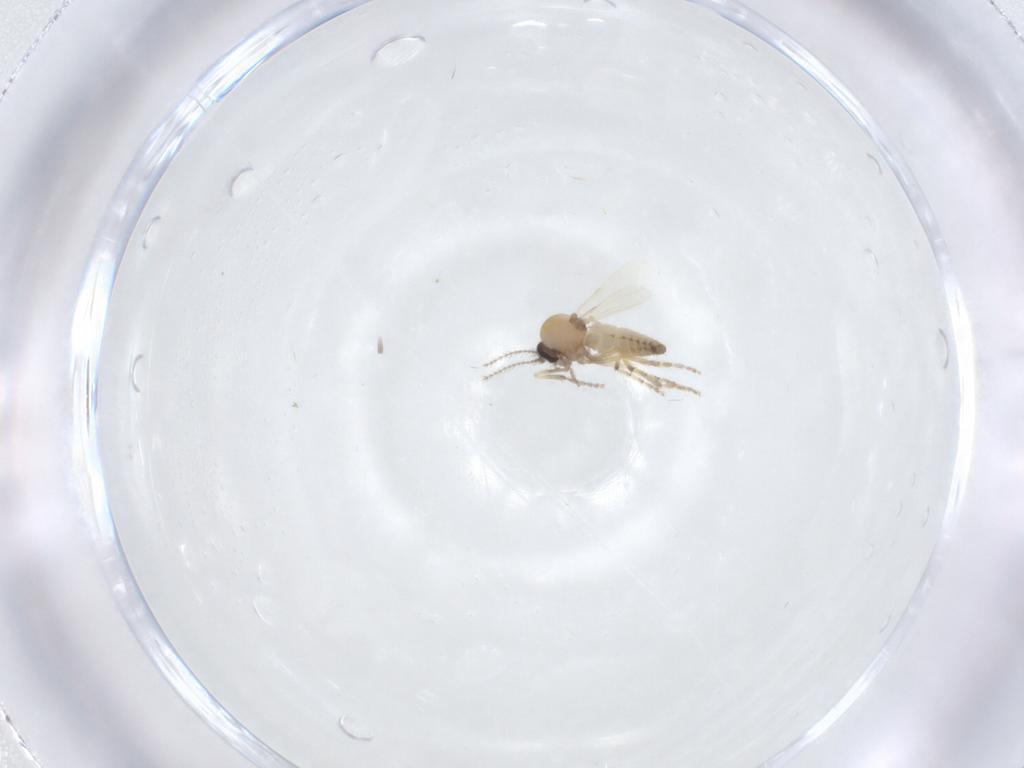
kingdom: Animalia
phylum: Arthropoda
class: Insecta
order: Diptera
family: Ceratopogonidae
